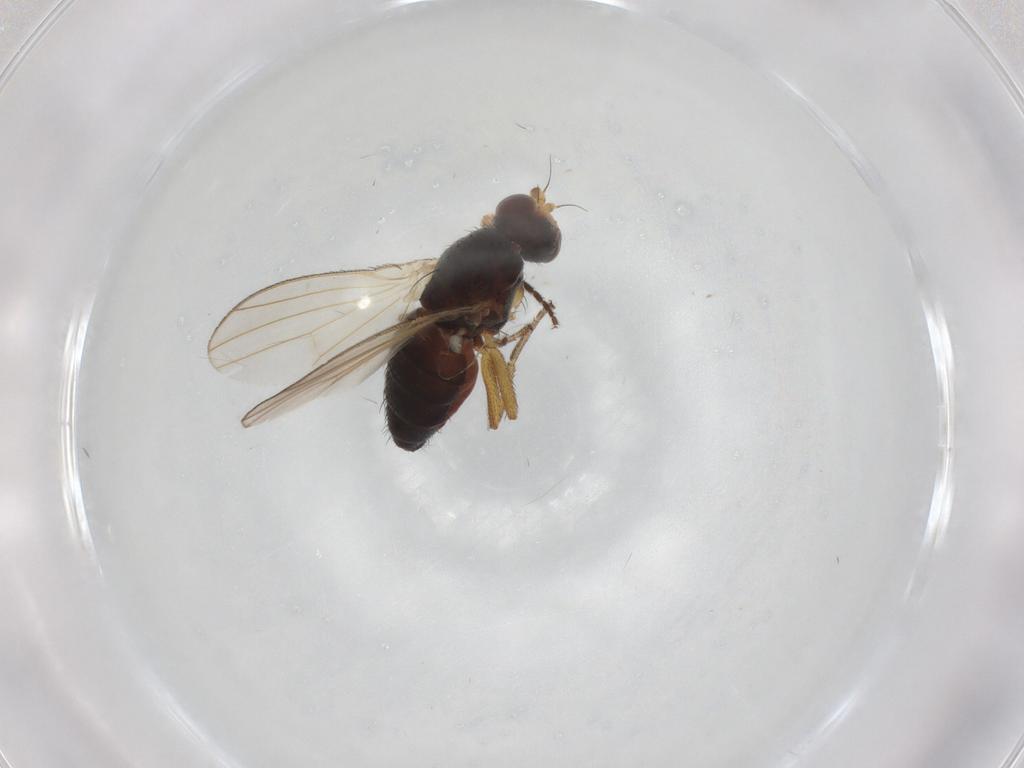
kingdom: Animalia
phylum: Arthropoda
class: Insecta
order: Diptera
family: Heleomyzidae
